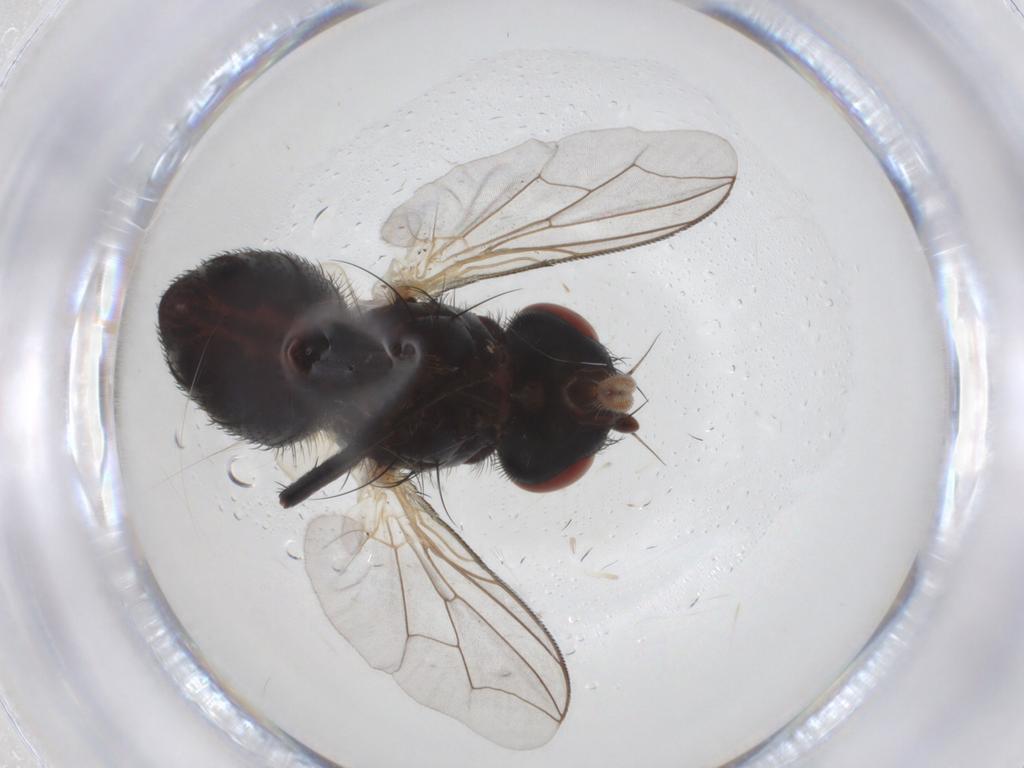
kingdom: Animalia
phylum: Arthropoda
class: Insecta
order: Diptera
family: Sarcophagidae
